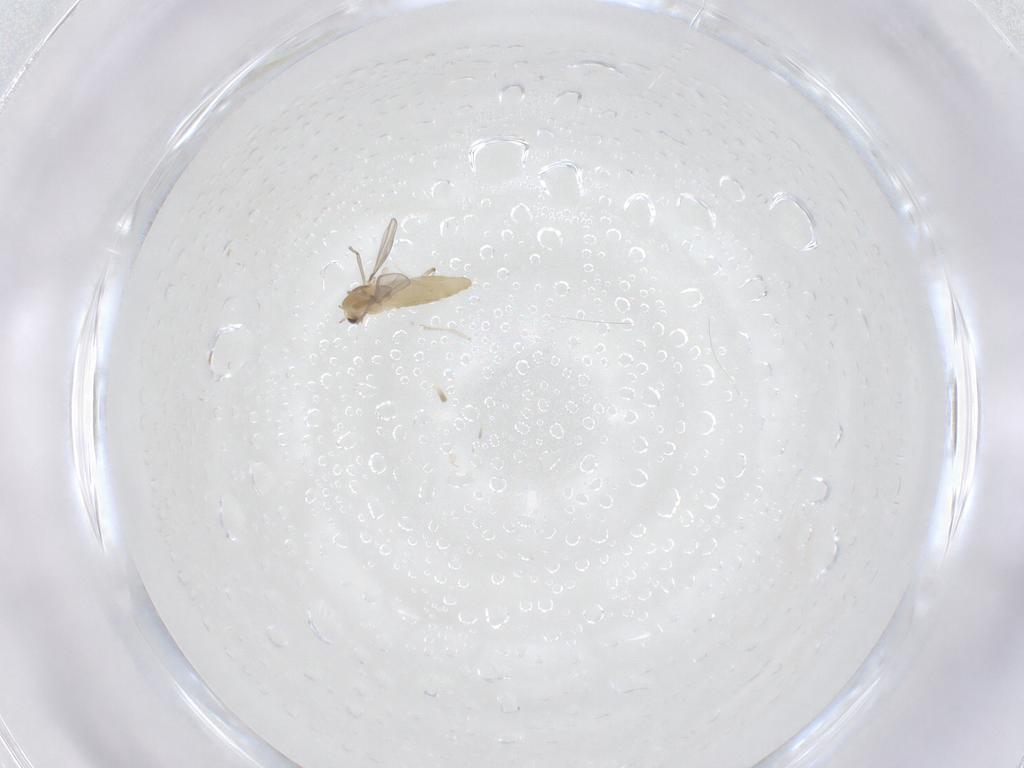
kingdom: Animalia
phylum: Arthropoda
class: Insecta
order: Diptera
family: Cecidomyiidae
